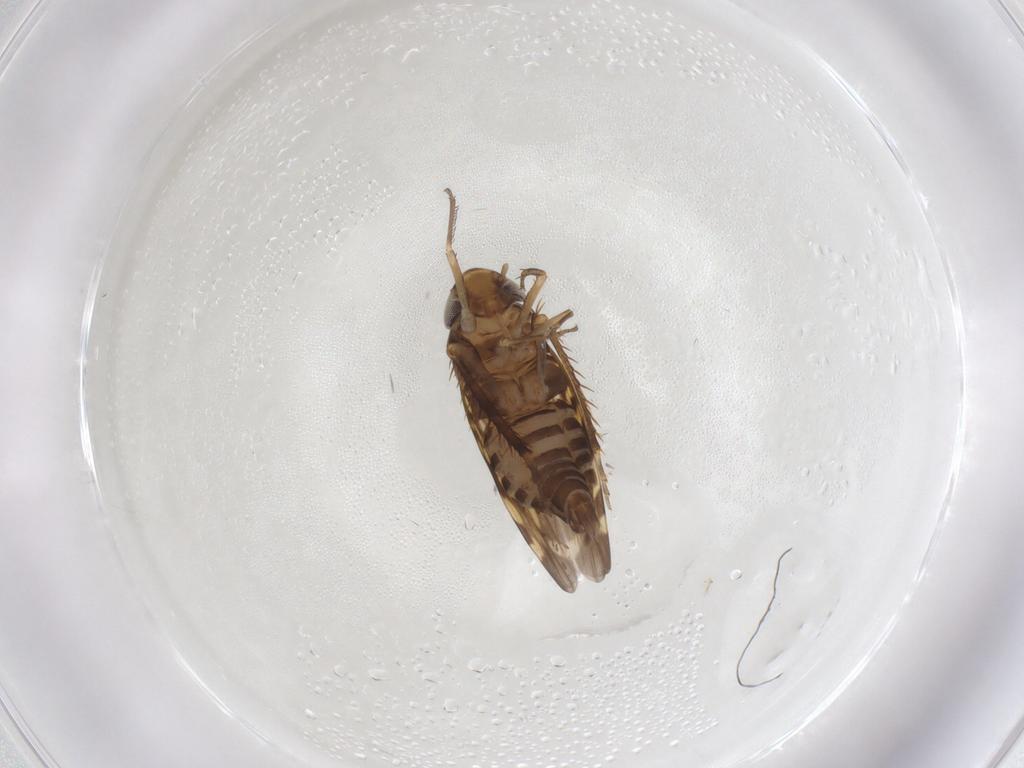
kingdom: Animalia
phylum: Arthropoda
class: Insecta
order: Hemiptera
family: Cicadellidae
